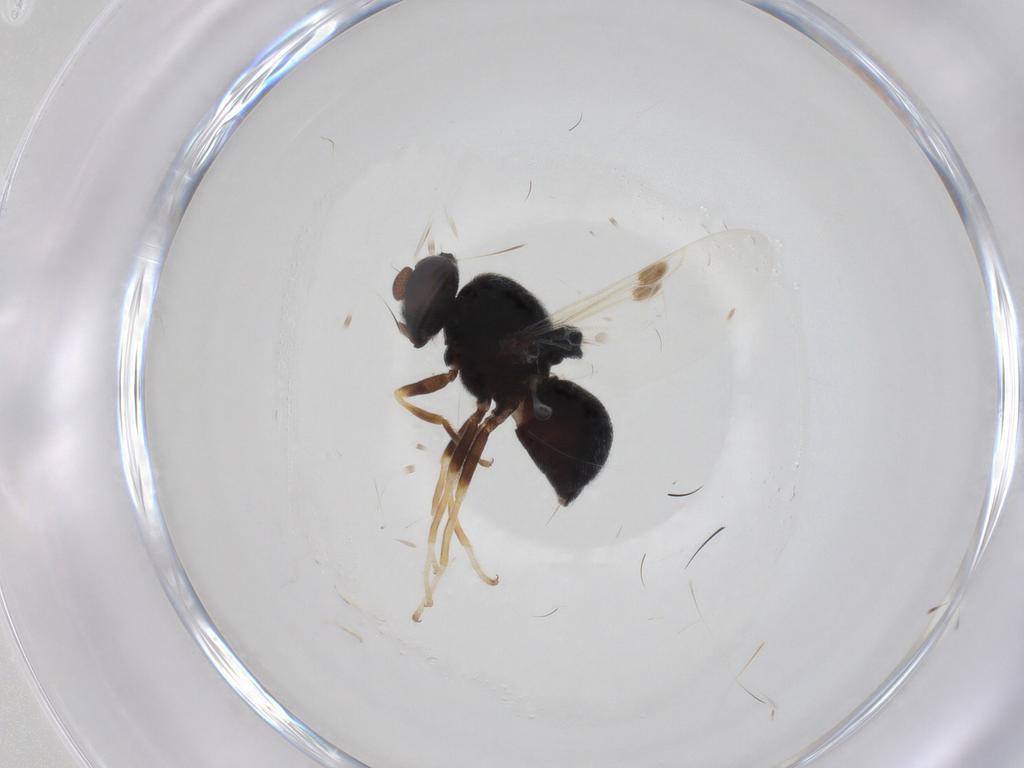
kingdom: Animalia
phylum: Arthropoda
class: Insecta
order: Diptera
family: Stratiomyidae
